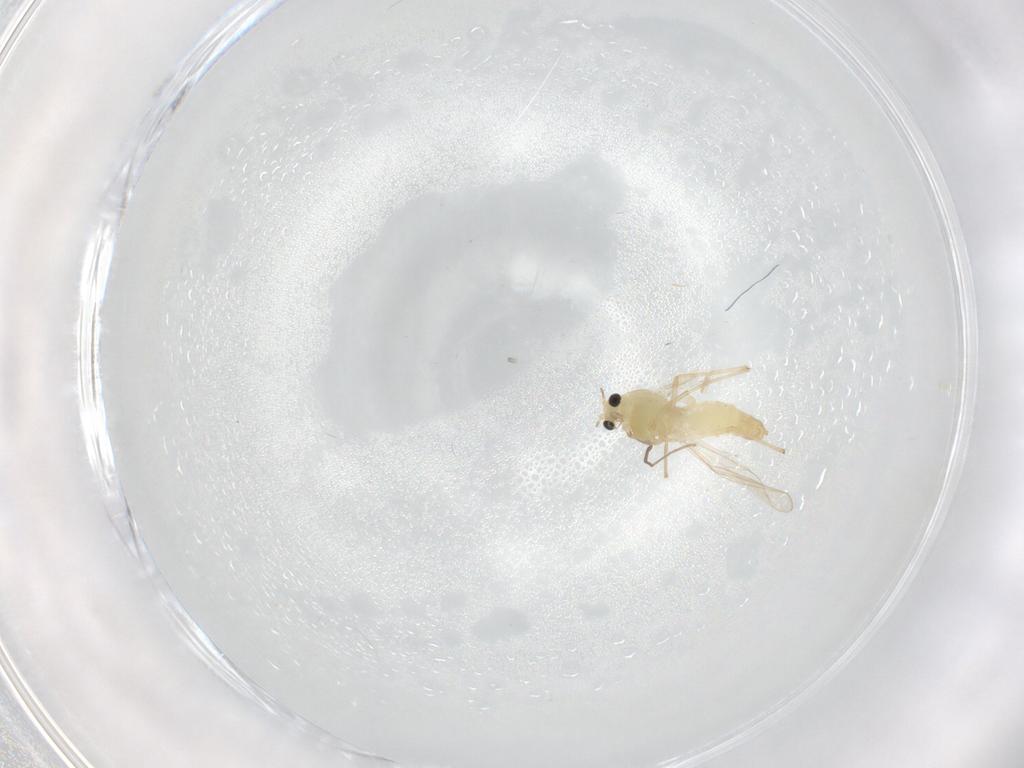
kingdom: Animalia
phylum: Arthropoda
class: Insecta
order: Diptera
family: Chironomidae
